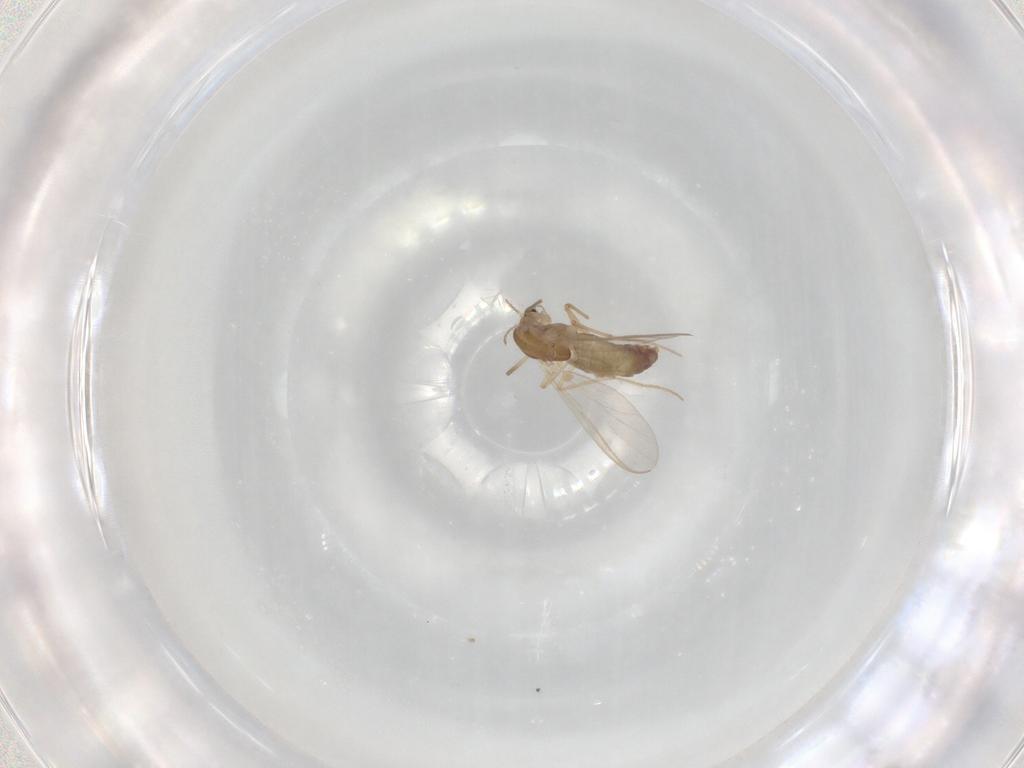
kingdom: Animalia
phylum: Arthropoda
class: Insecta
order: Diptera
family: Chironomidae
